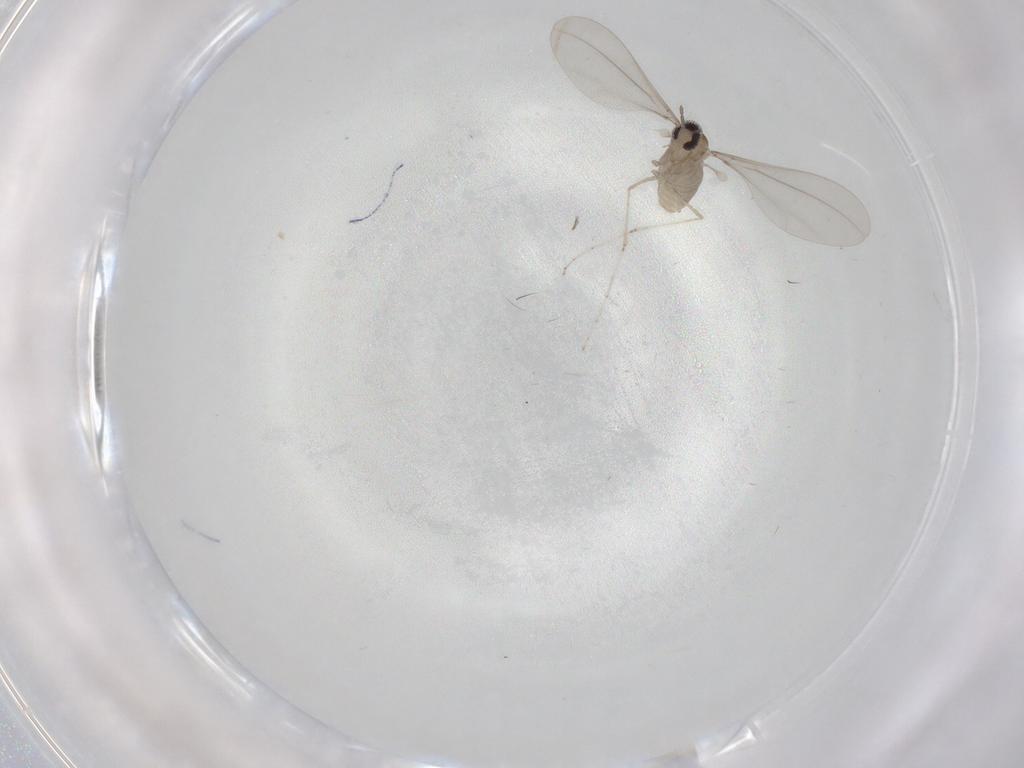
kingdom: Animalia
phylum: Arthropoda
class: Insecta
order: Diptera
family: Cecidomyiidae
